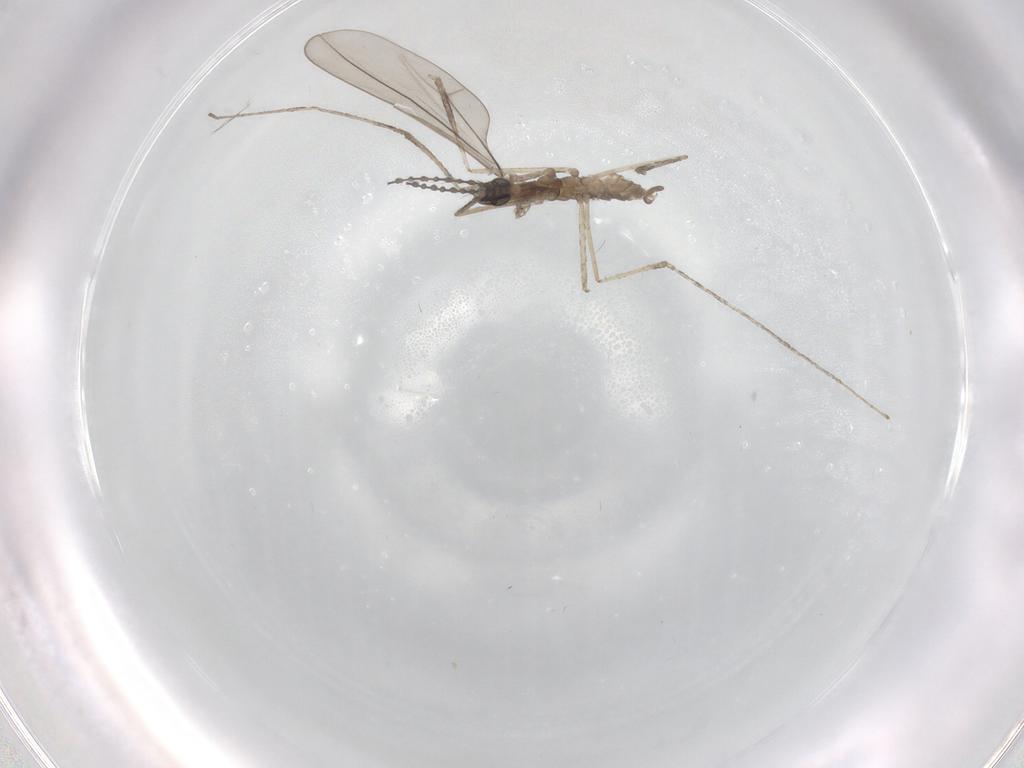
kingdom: Animalia
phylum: Arthropoda
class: Insecta
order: Diptera
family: Cecidomyiidae
